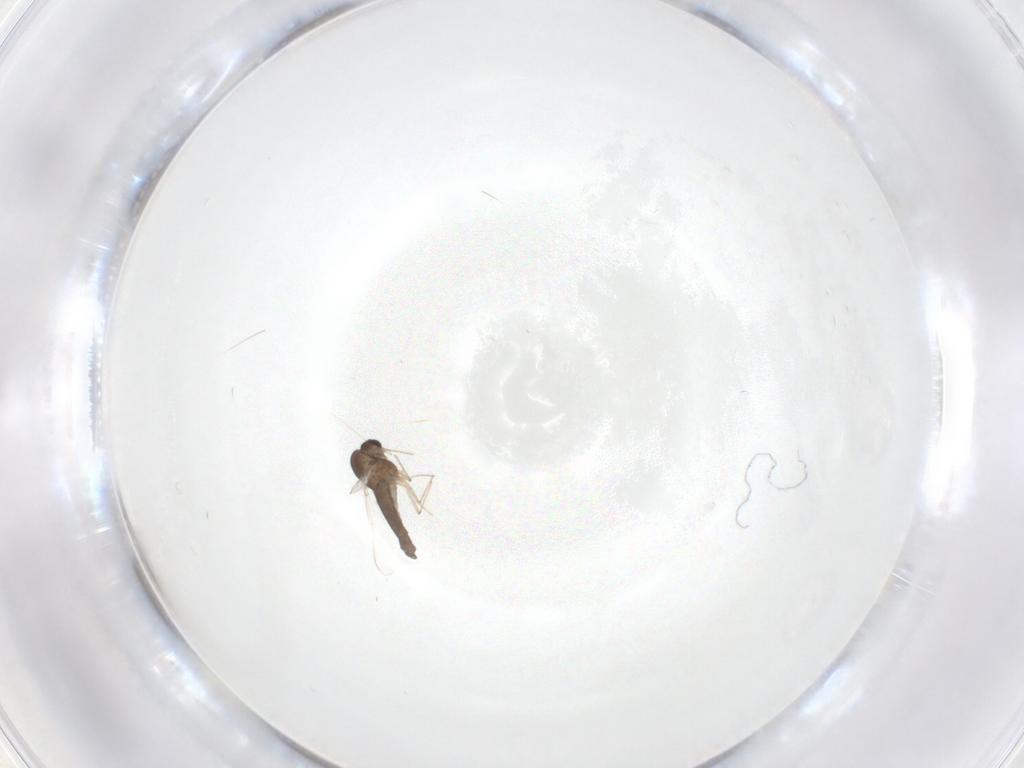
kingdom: Animalia
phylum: Arthropoda
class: Insecta
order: Diptera
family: Chironomidae
